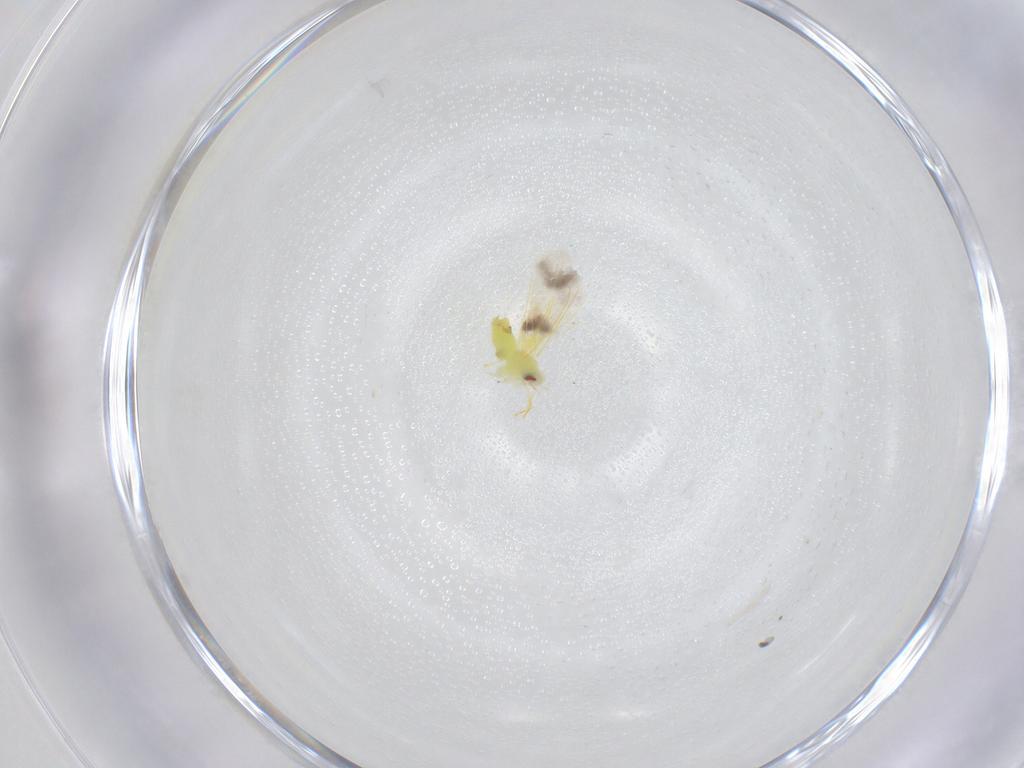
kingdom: Animalia
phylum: Arthropoda
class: Insecta
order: Hemiptera
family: Aleyrodidae
